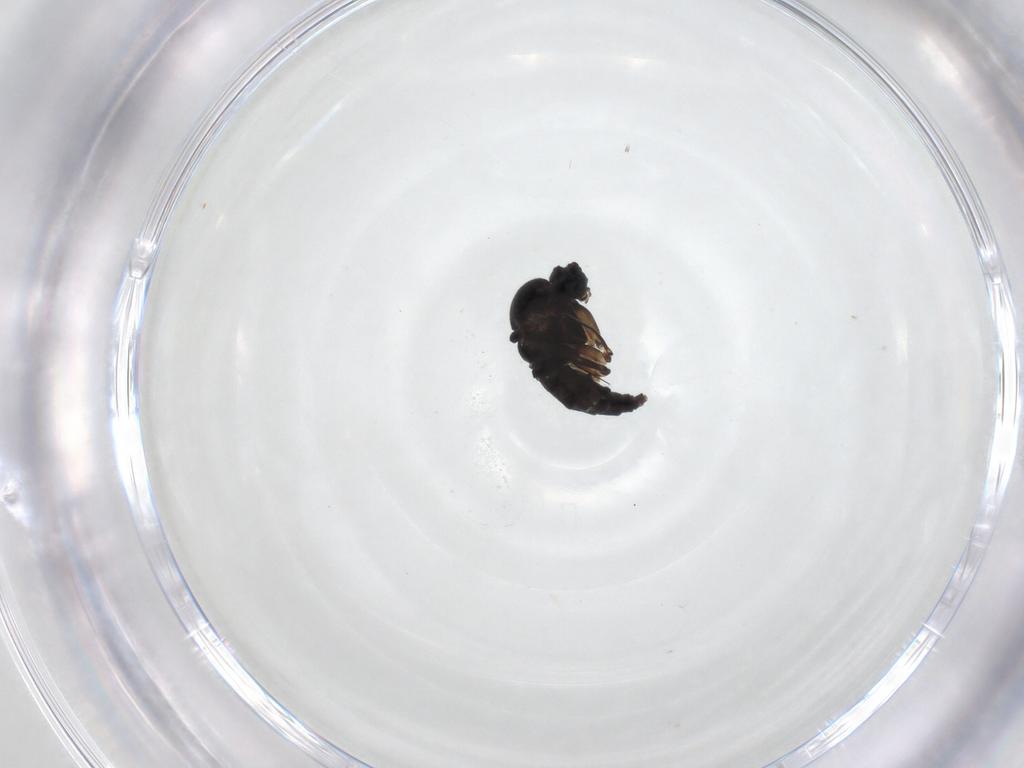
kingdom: Animalia
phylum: Arthropoda
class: Insecta
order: Diptera
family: Sciaridae
